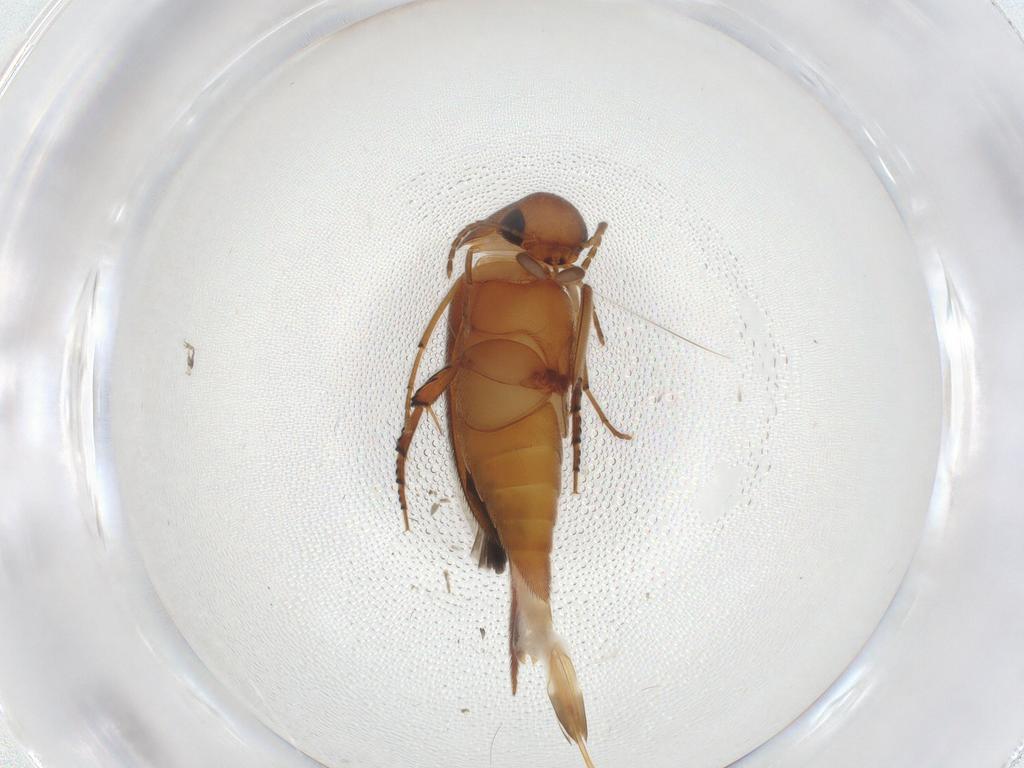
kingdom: Animalia
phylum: Arthropoda
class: Insecta
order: Coleoptera
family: Mordellidae
